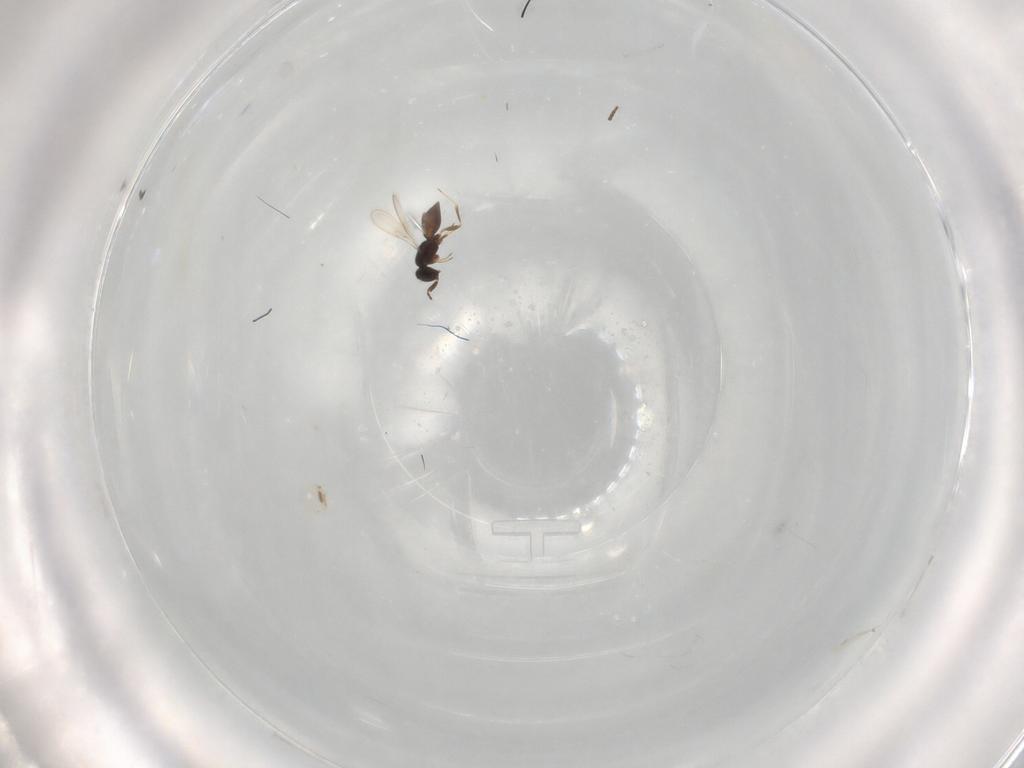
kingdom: Animalia
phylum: Arthropoda
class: Insecta
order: Hymenoptera
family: Scelionidae
